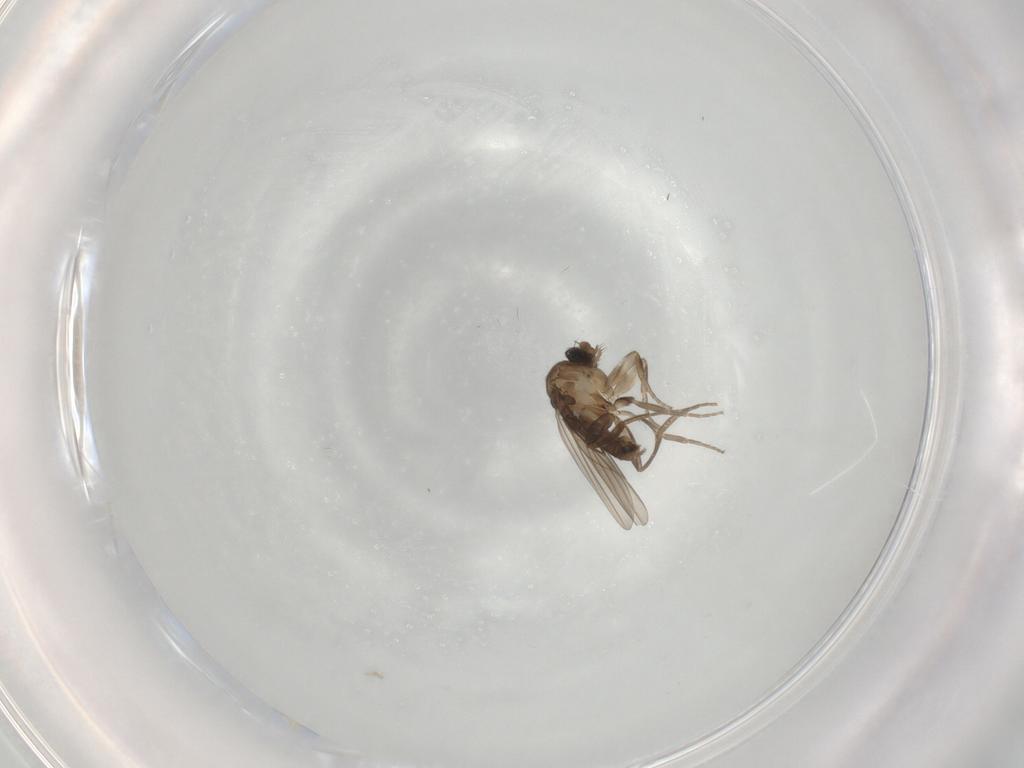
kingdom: Animalia
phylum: Arthropoda
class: Insecta
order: Diptera
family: Phoridae
